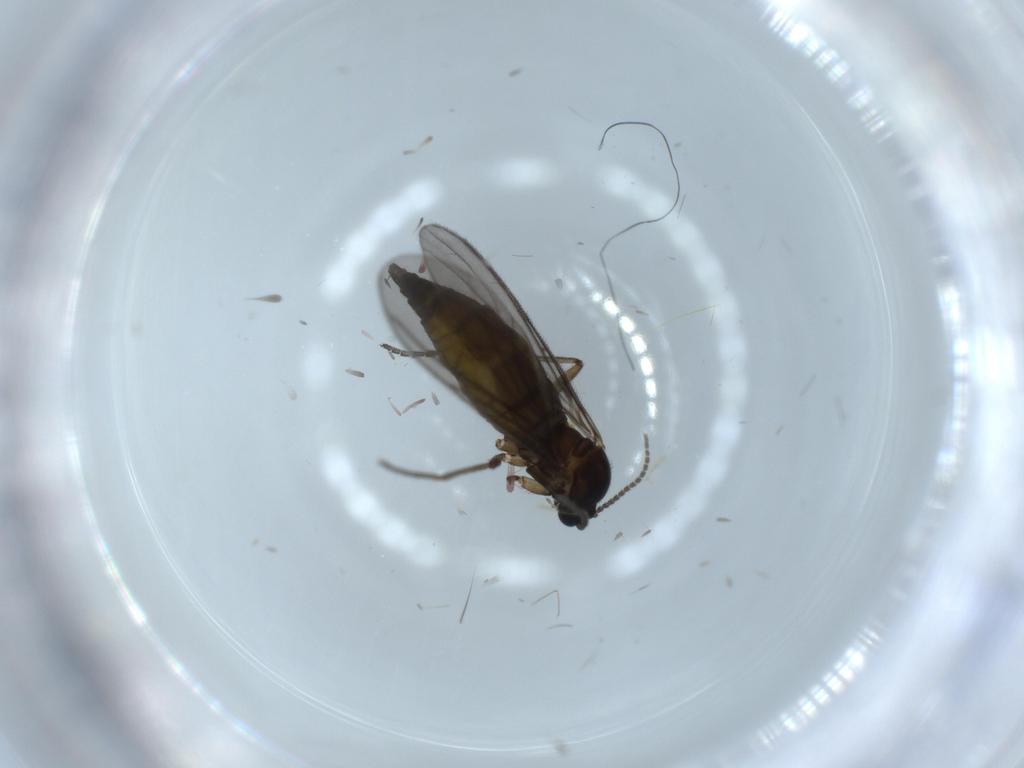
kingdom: Animalia
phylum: Arthropoda
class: Insecta
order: Diptera
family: Sciaridae
